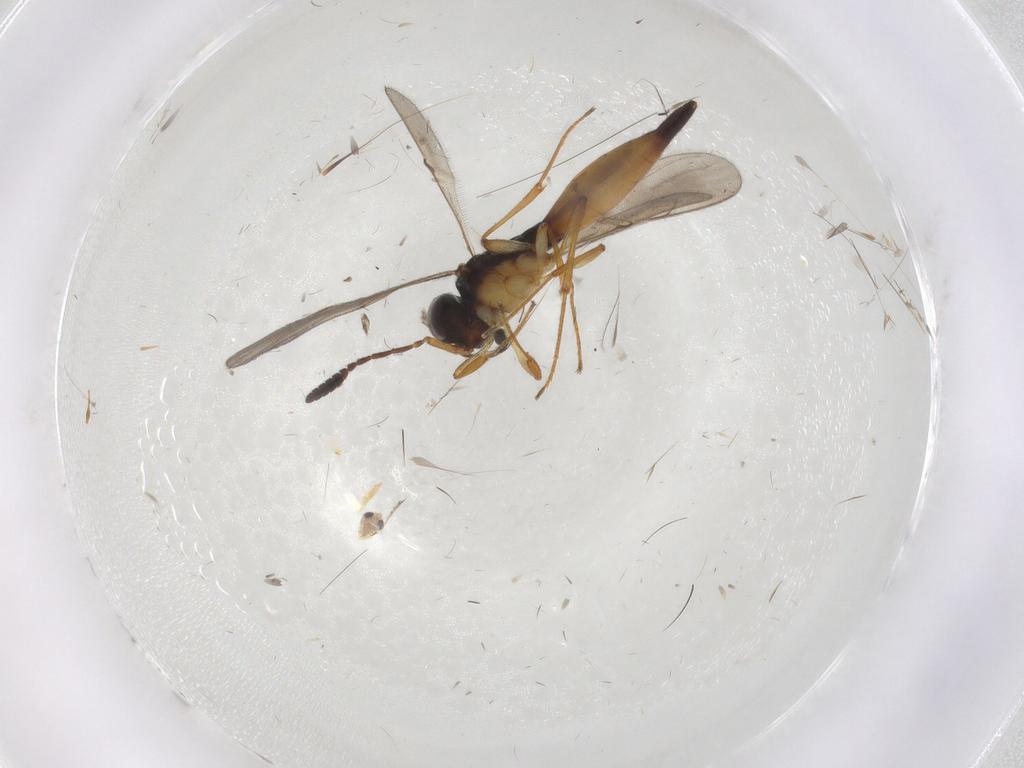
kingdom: Animalia
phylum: Arthropoda
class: Insecta
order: Hymenoptera
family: Scelionidae
